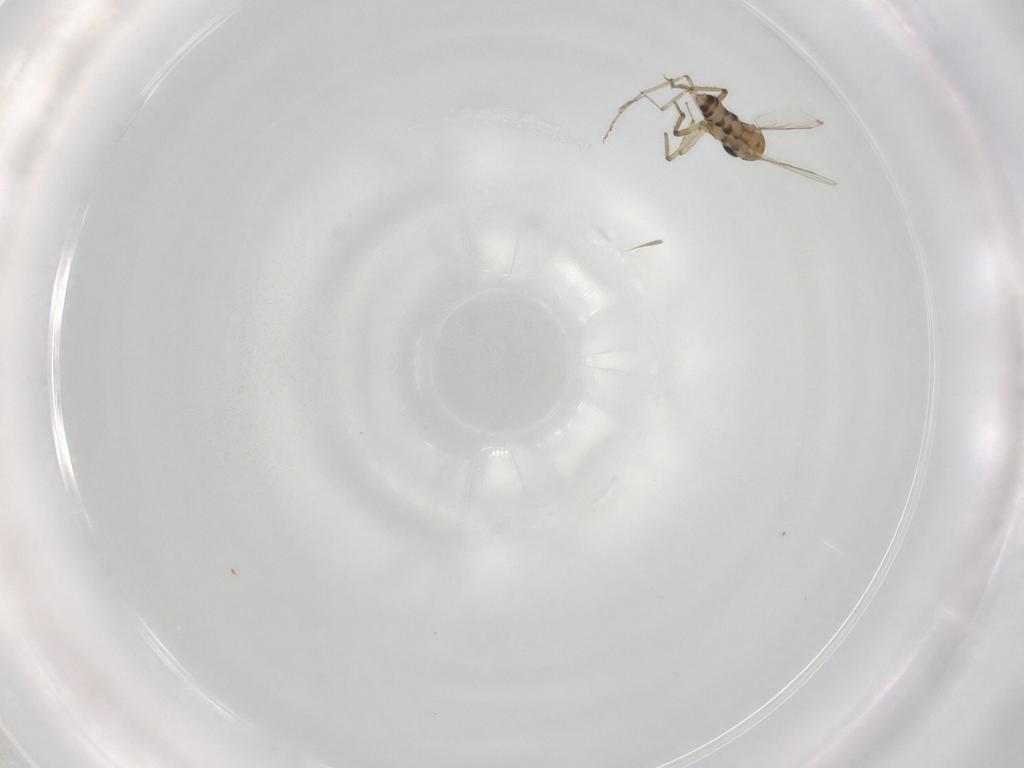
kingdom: Animalia
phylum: Arthropoda
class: Insecta
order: Diptera
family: Ceratopogonidae
